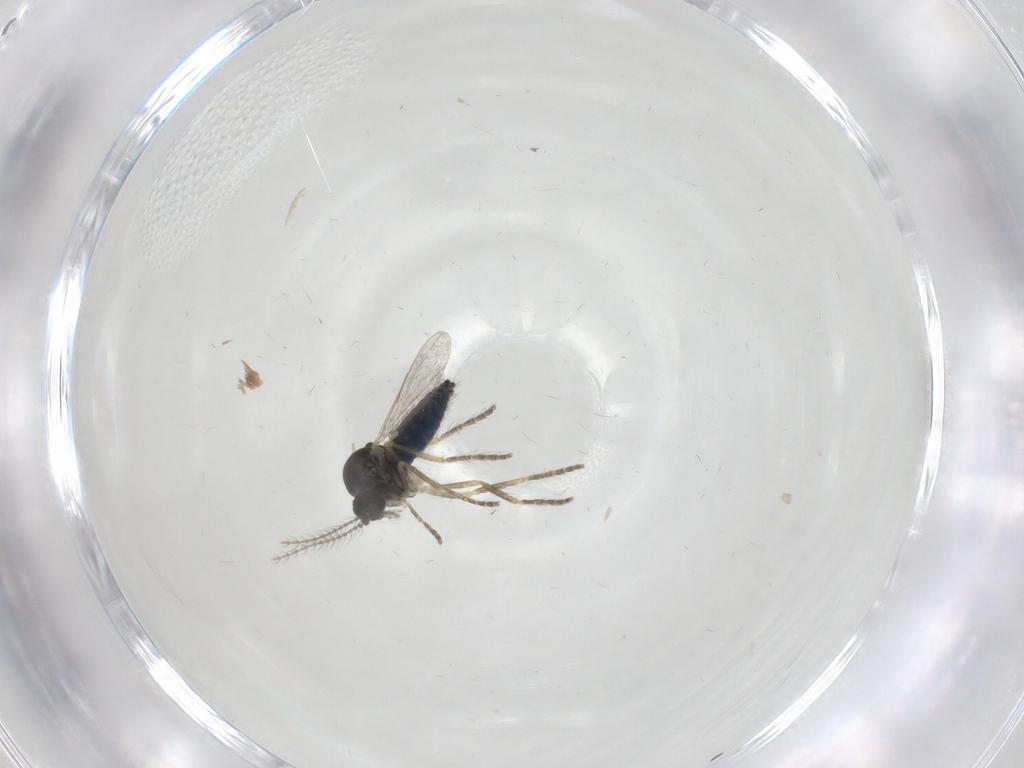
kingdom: Animalia
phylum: Arthropoda
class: Insecta
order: Diptera
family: Ceratopogonidae
